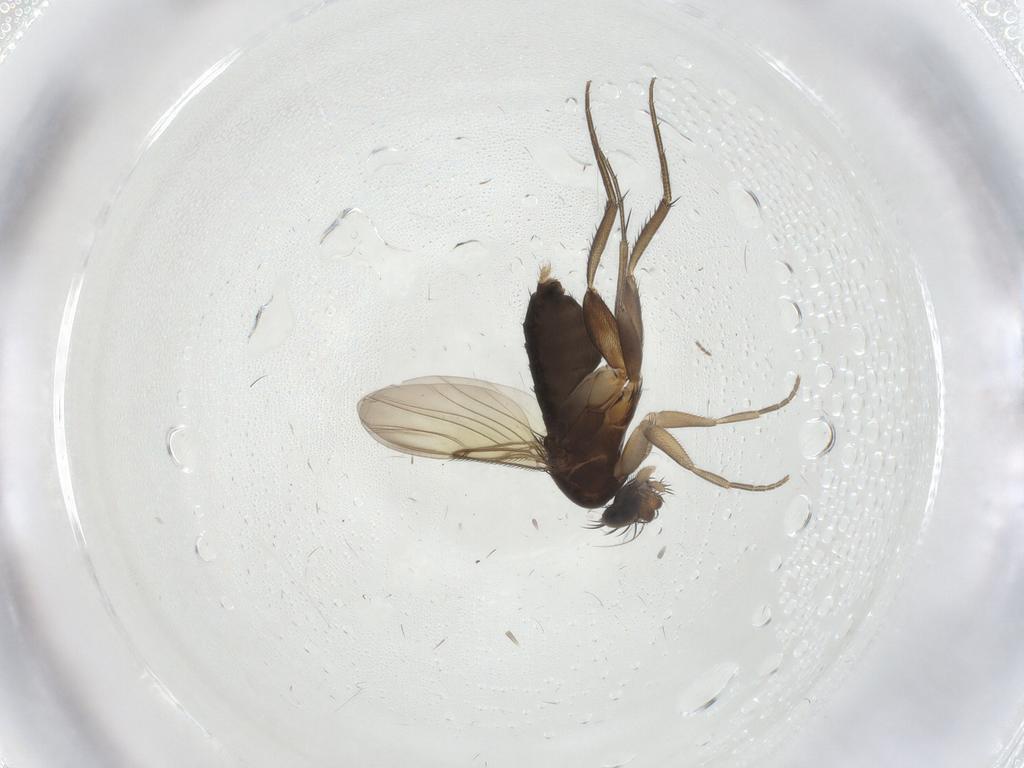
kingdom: Animalia
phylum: Arthropoda
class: Insecta
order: Diptera
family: Phoridae
